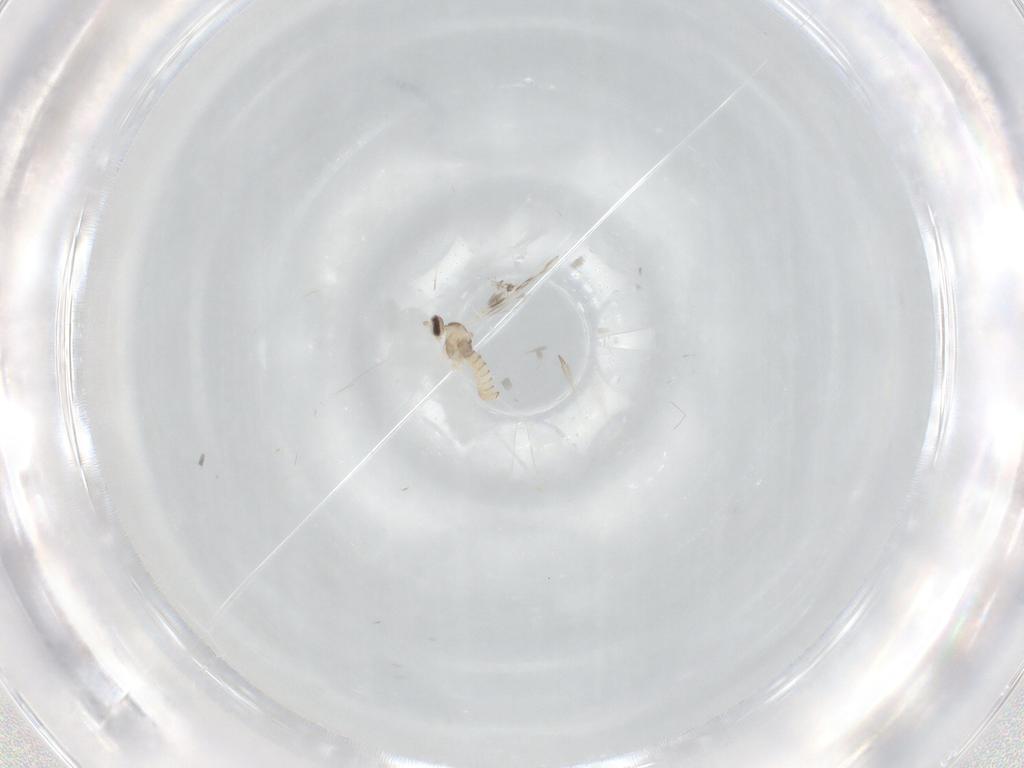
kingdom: Animalia
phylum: Arthropoda
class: Insecta
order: Diptera
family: Cecidomyiidae
